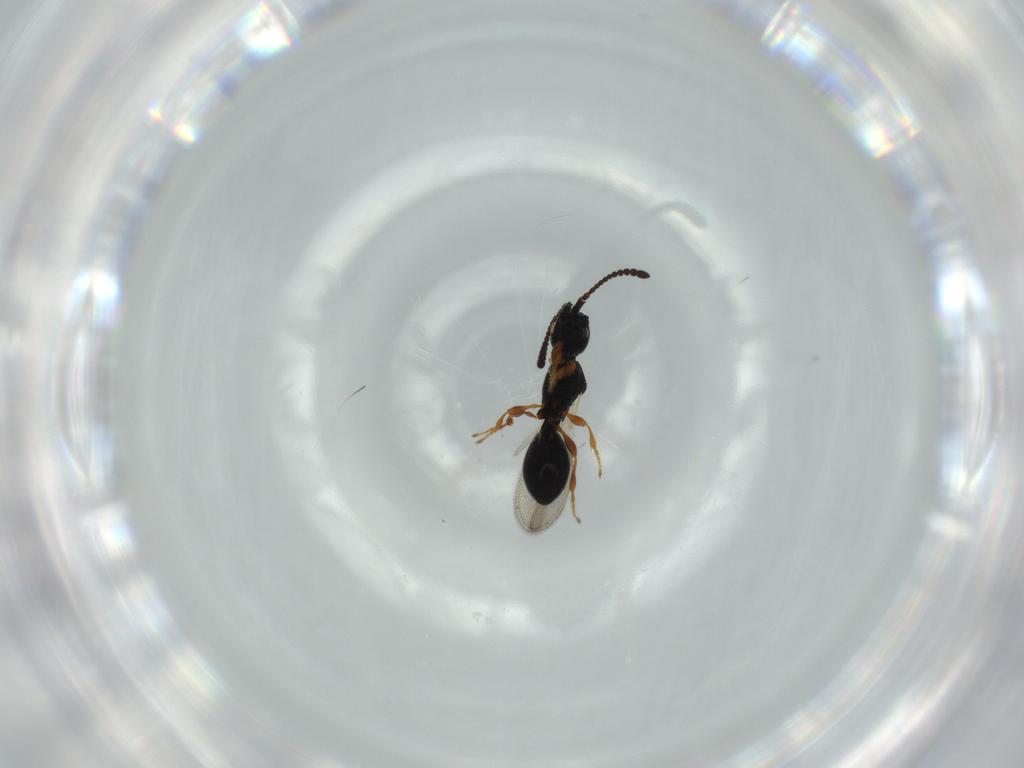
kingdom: Animalia
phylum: Arthropoda
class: Insecta
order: Hymenoptera
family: Diapriidae
